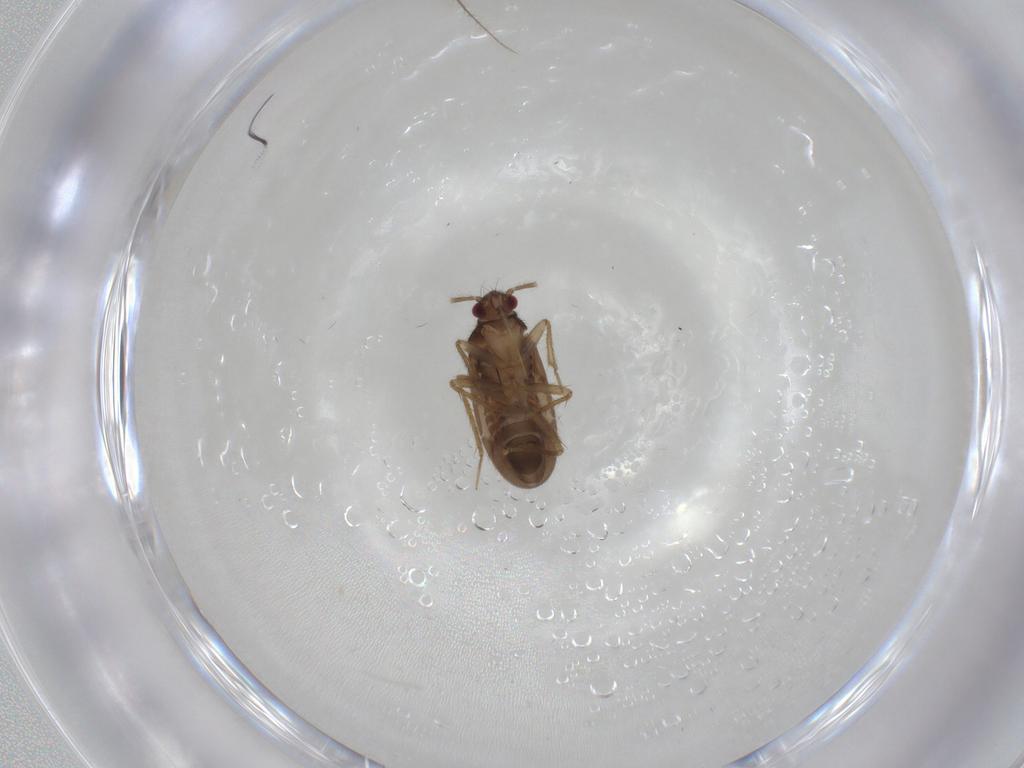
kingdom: Animalia
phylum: Arthropoda
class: Insecta
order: Hemiptera
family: Ceratocombidae
